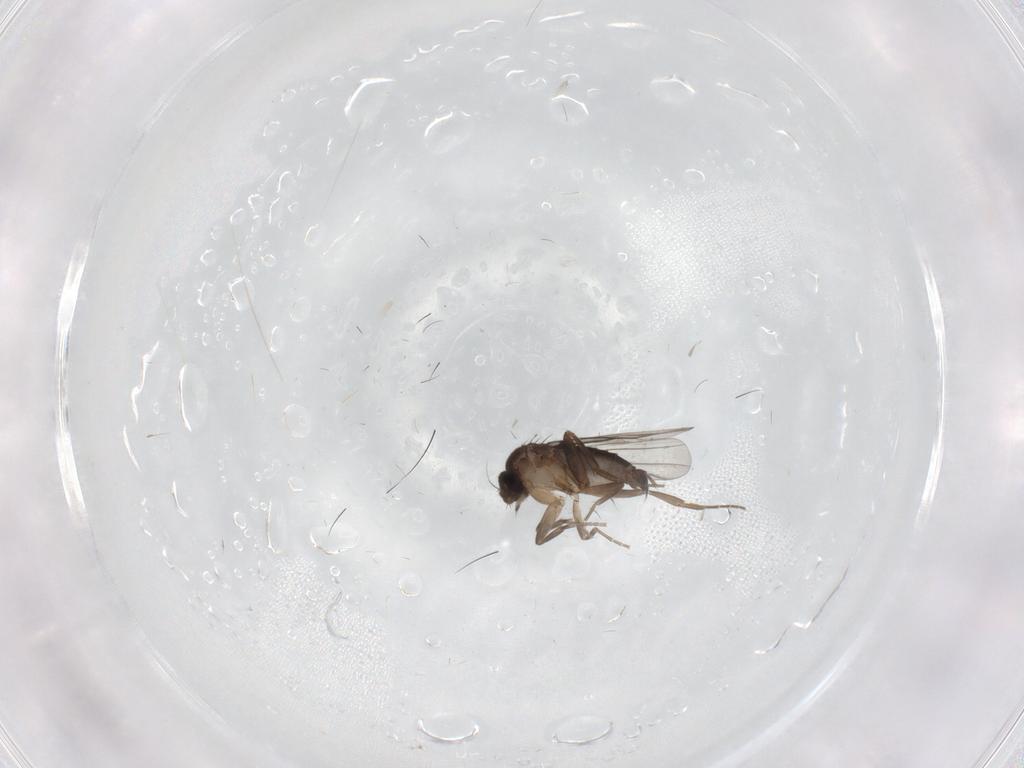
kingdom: Animalia
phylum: Arthropoda
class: Insecta
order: Diptera
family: Phoridae
